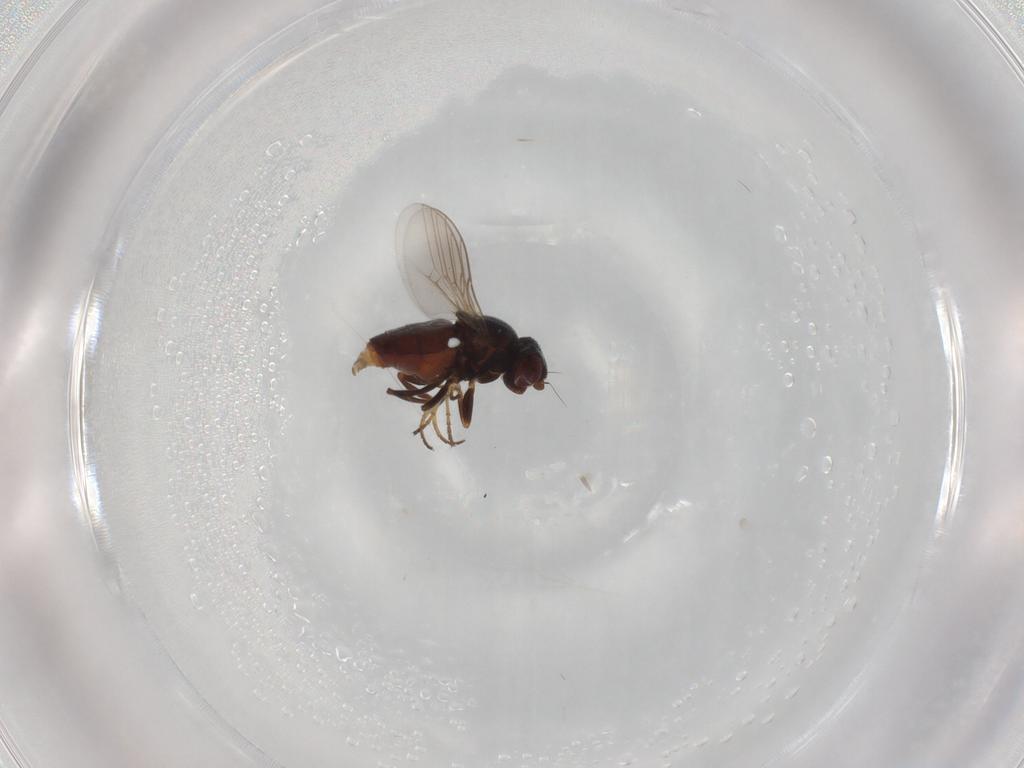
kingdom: Animalia
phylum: Arthropoda
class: Insecta
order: Diptera
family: Chloropidae
